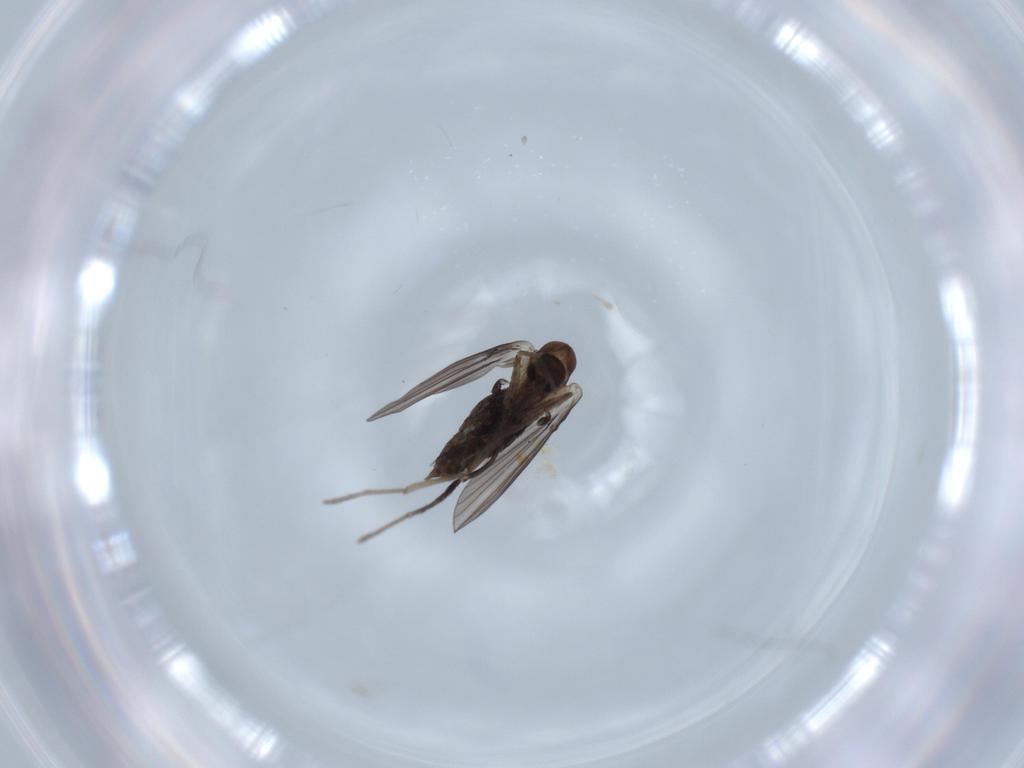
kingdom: Animalia
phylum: Arthropoda
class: Insecta
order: Diptera
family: Psychodidae
